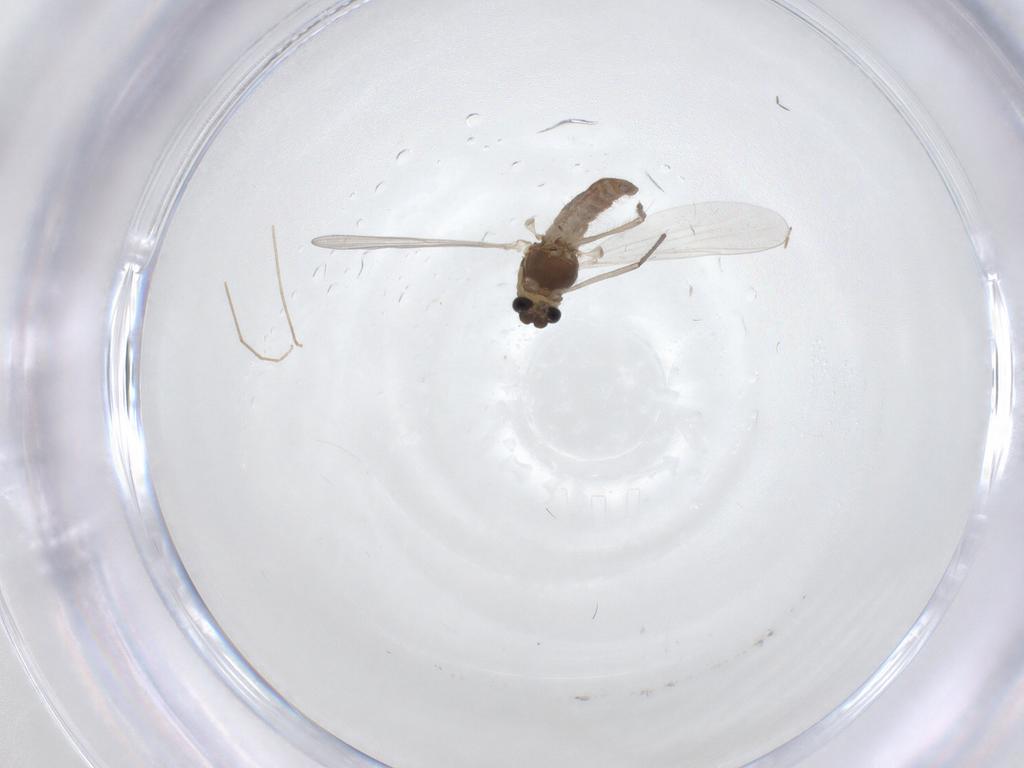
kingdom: Animalia
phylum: Arthropoda
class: Insecta
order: Diptera
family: Chironomidae
